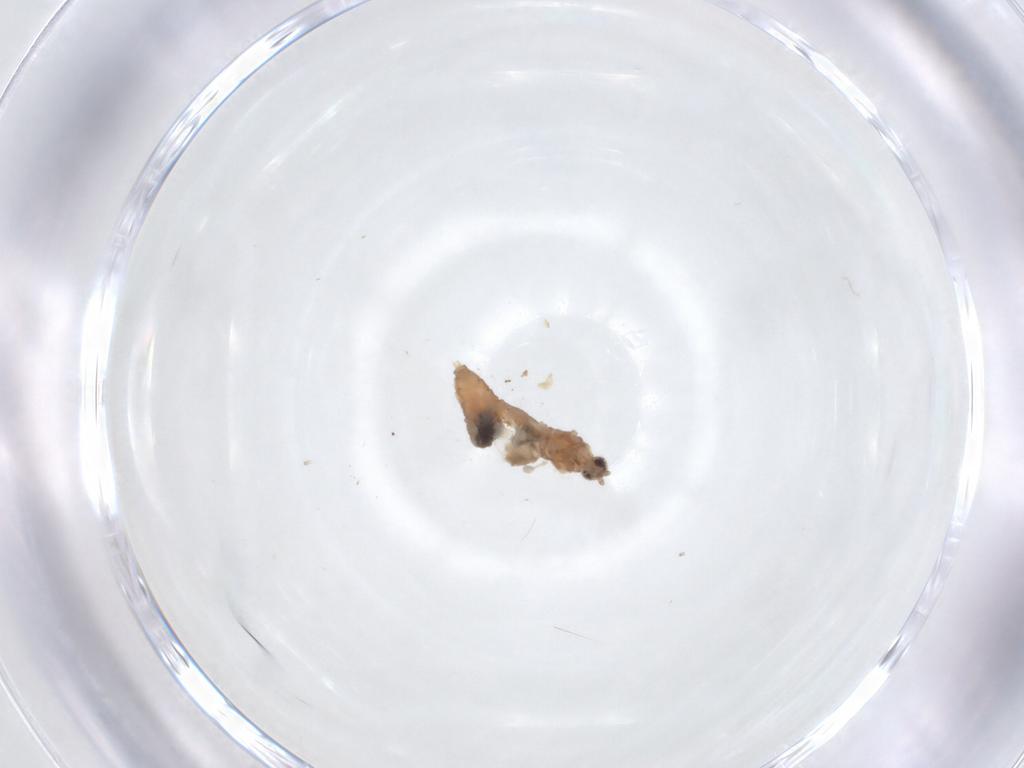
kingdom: Animalia
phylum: Arthropoda
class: Insecta
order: Diptera
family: Cecidomyiidae
